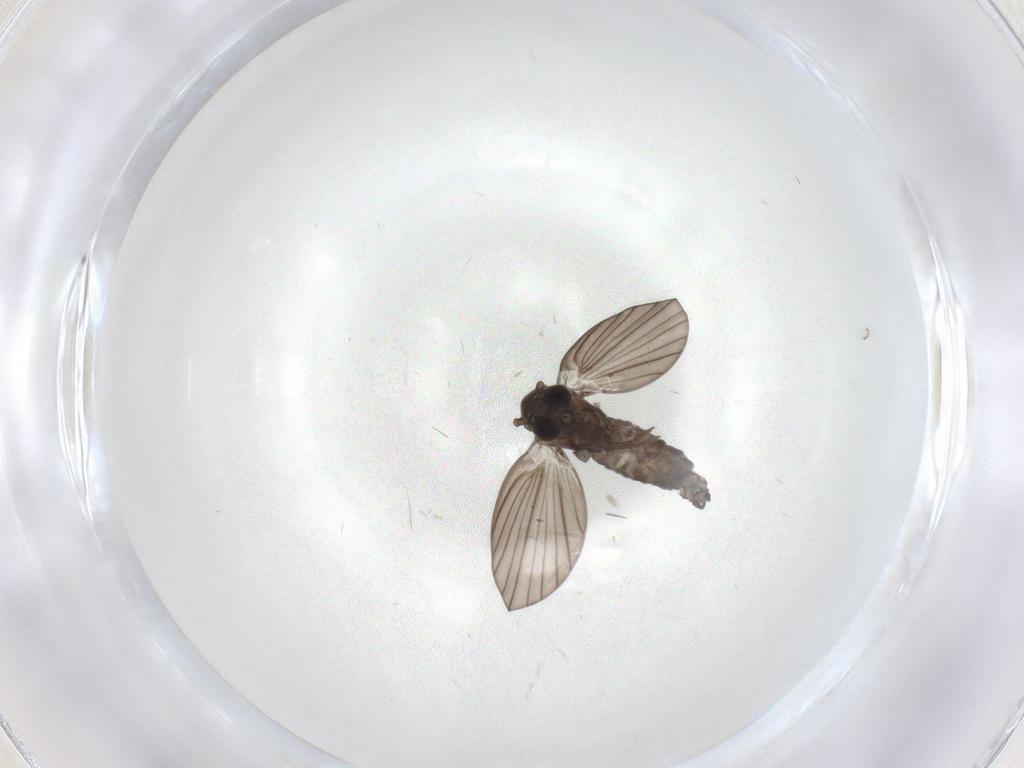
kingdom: Animalia
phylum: Arthropoda
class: Insecta
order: Diptera
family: Psychodidae
